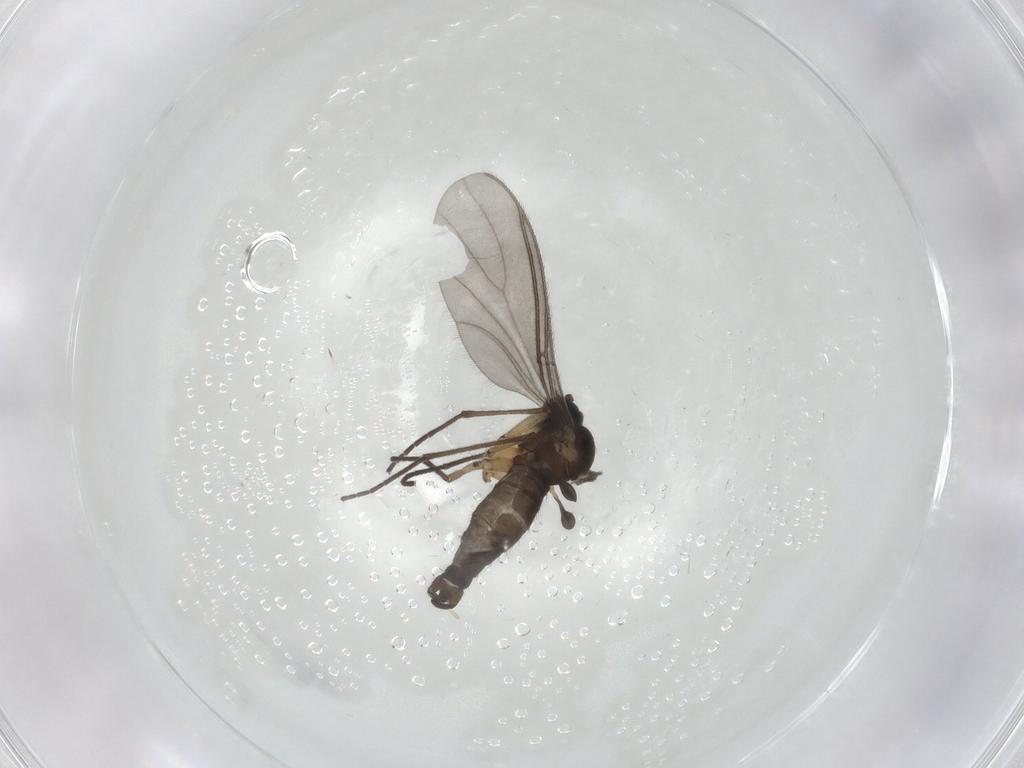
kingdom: Animalia
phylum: Arthropoda
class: Insecta
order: Diptera
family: Sciaridae
